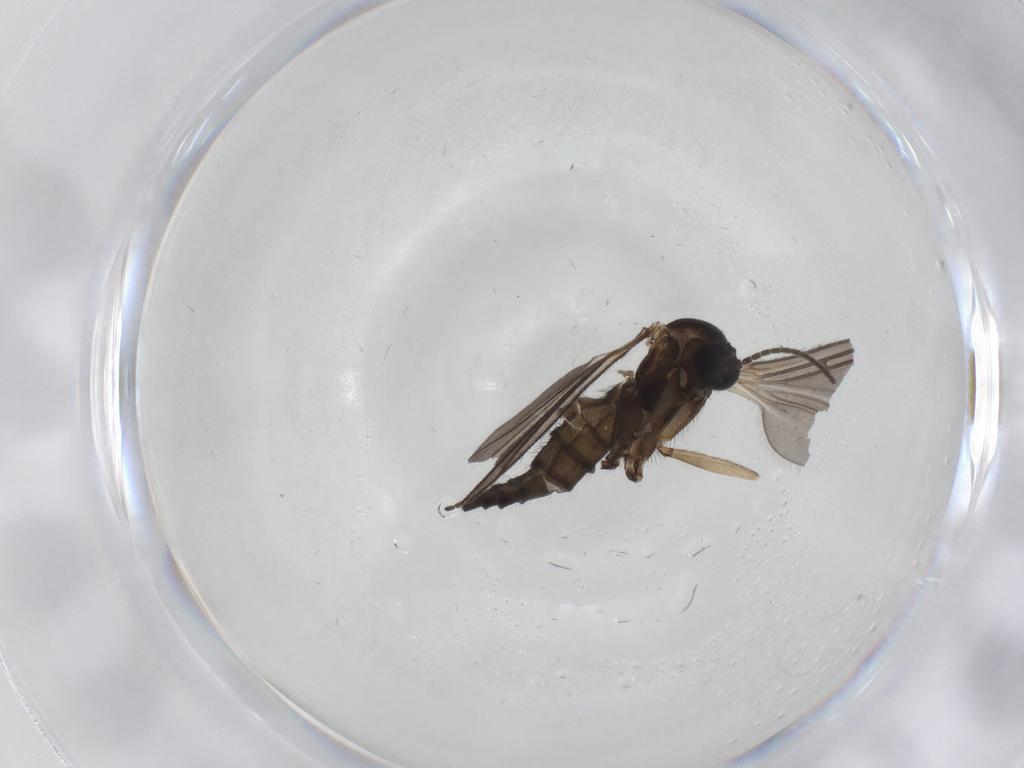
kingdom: Animalia
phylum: Arthropoda
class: Insecta
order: Diptera
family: Sciaridae
